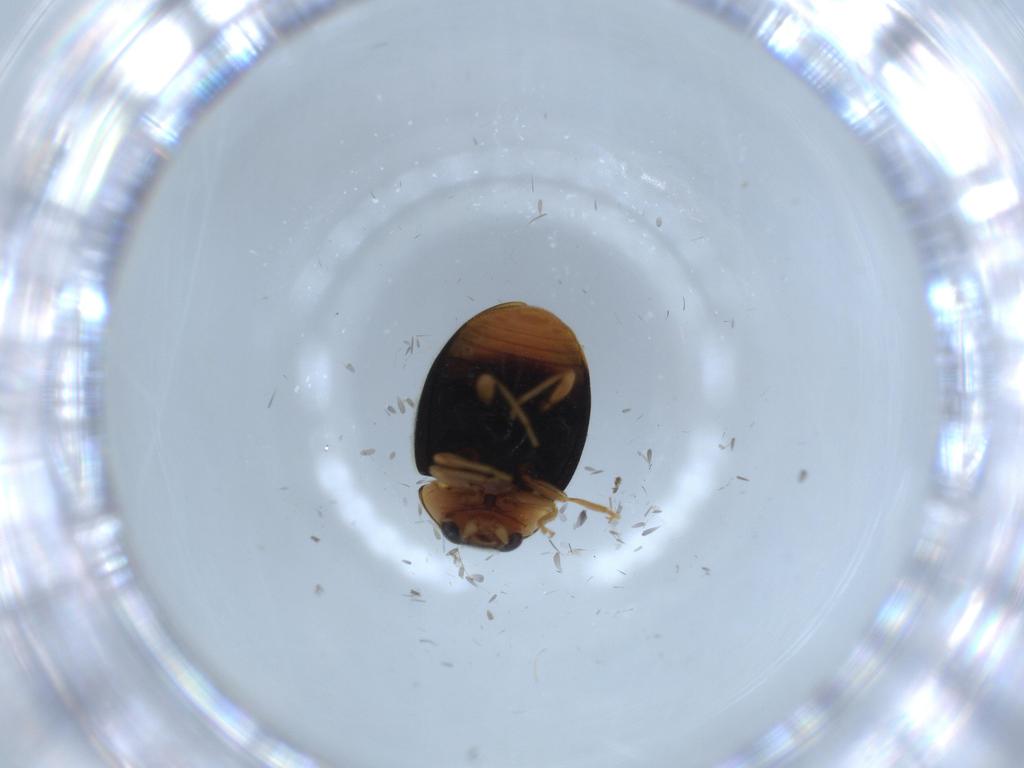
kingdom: Animalia
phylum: Arthropoda
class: Insecta
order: Coleoptera
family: Coccinellidae
